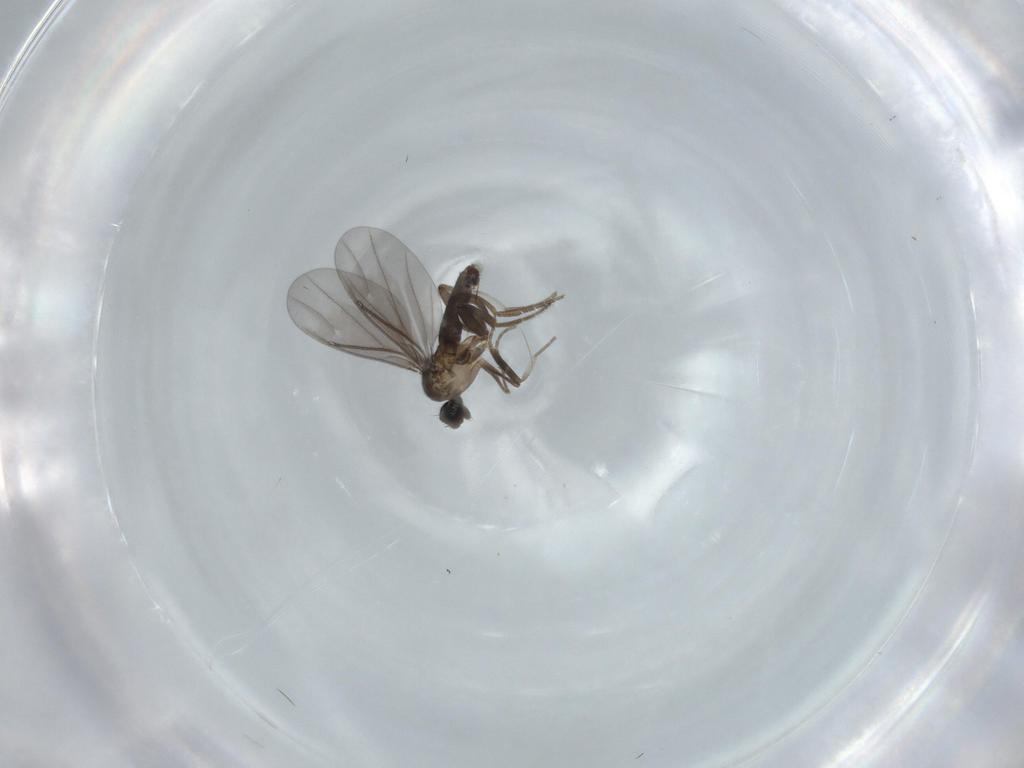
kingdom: Animalia
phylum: Arthropoda
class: Insecta
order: Diptera
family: Phoridae
